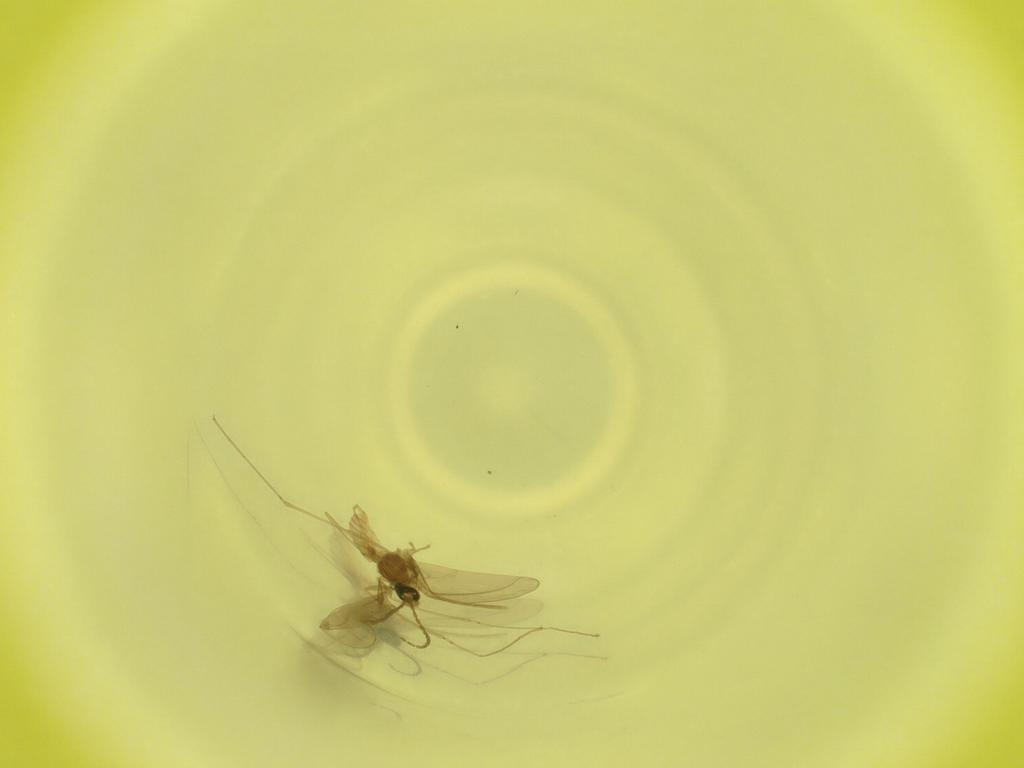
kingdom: Animalia
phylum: Arthropoda
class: Insecta
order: Diptera
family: Cecidomyiidae
